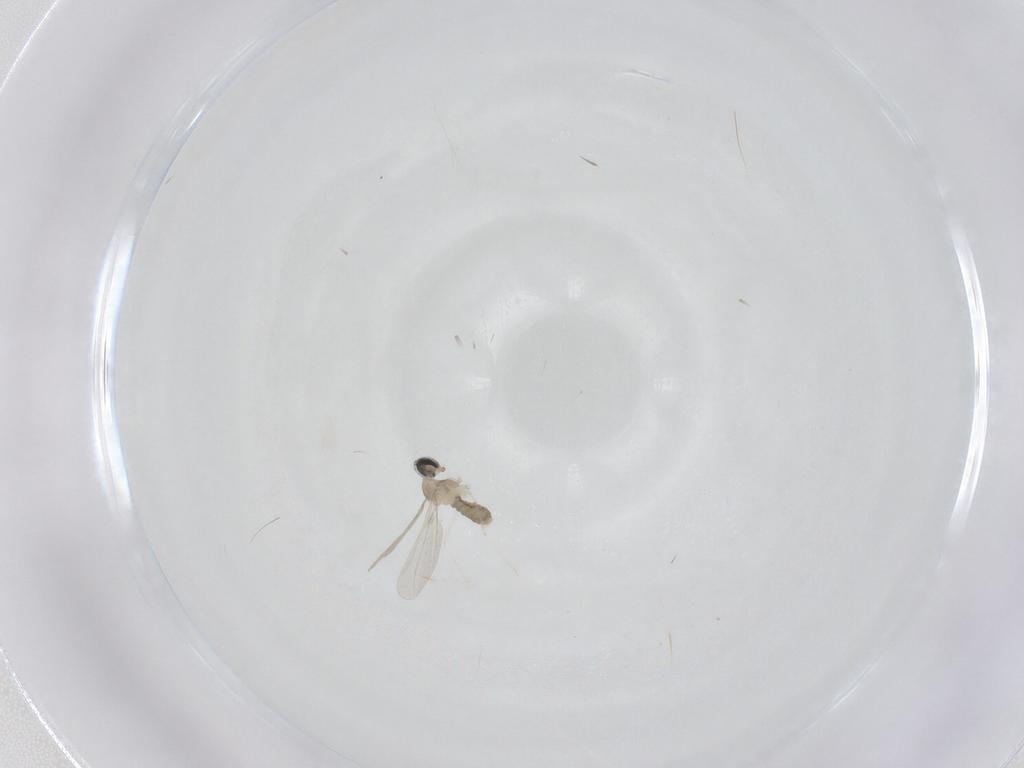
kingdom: Animalia
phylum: Arthropoda
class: Insecta
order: Diptera
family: Cecidomyiidae
